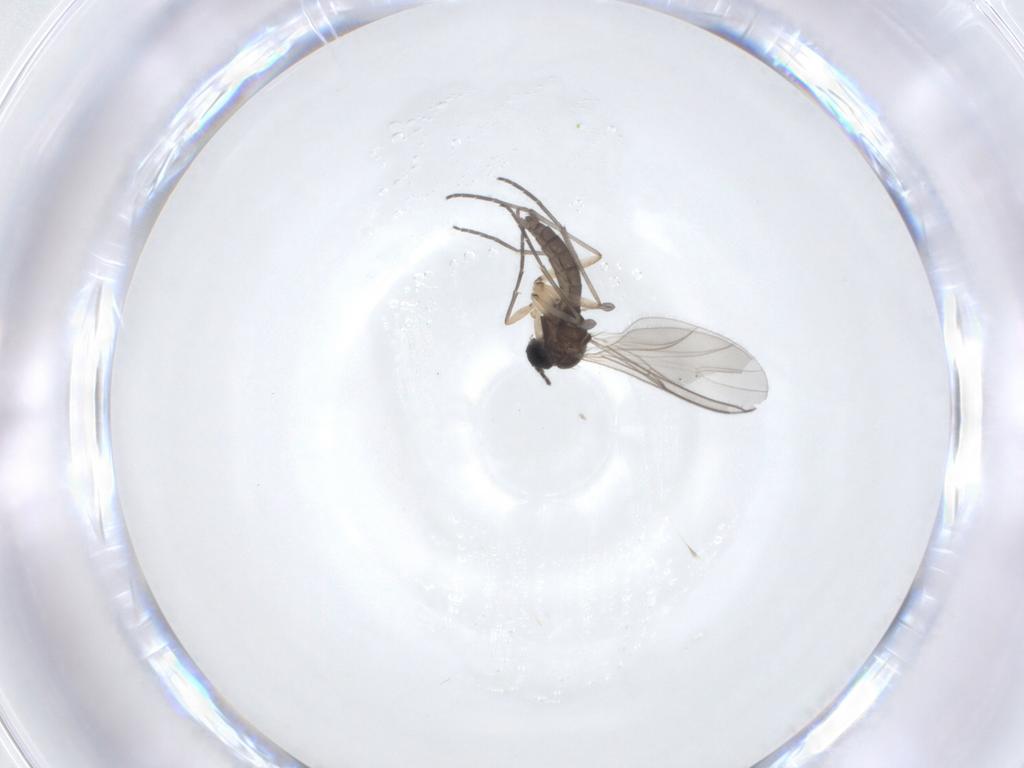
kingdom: Animalia
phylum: Arthropoda
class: Insecta
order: Diptera
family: Sciaridae
